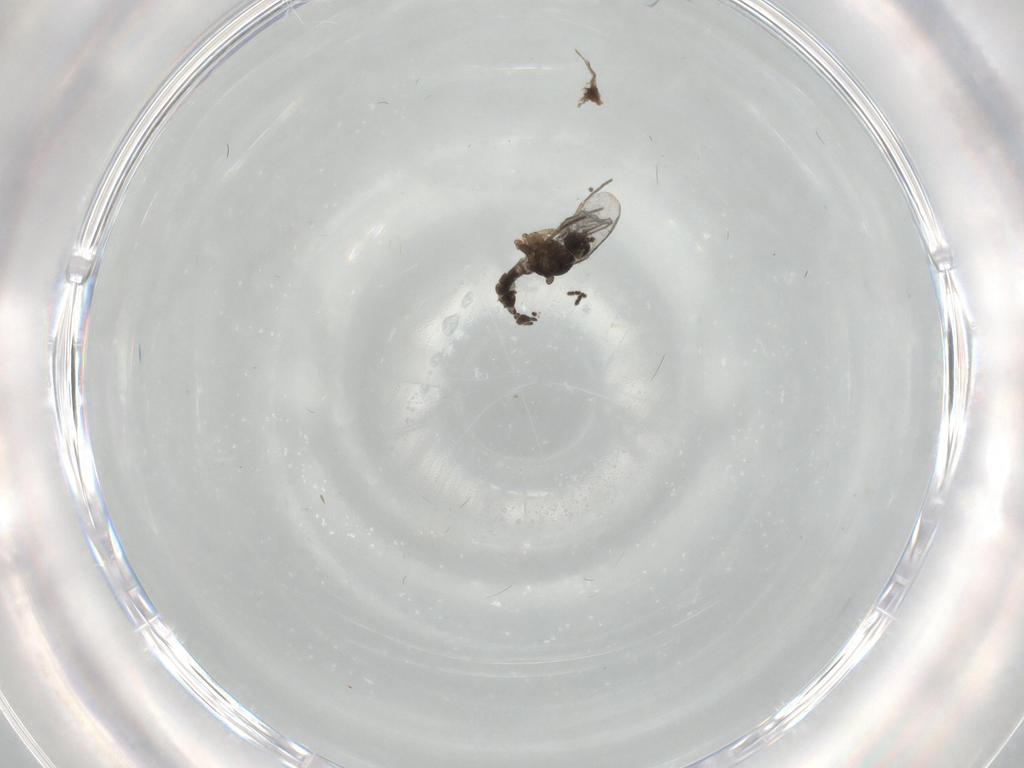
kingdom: Animalia
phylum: Arthropoda
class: Insecta
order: Diptera
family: Sciaridae
